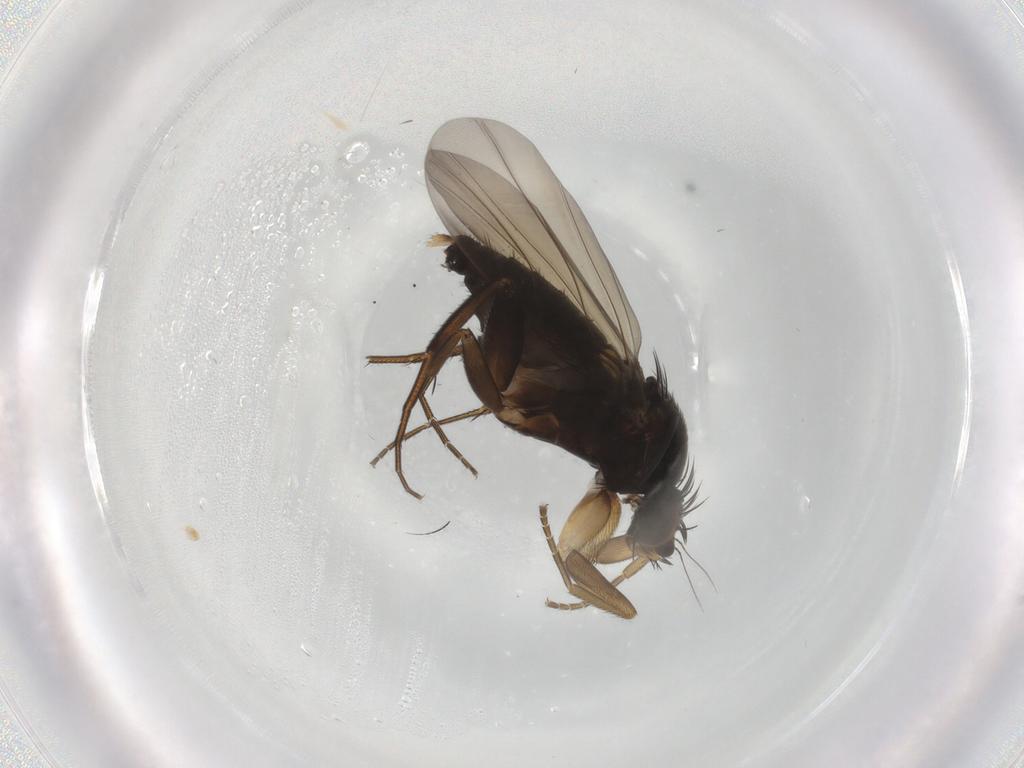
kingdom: Animalia
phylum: Arthropoda
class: Insecta
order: Diptera
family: Phoridae
